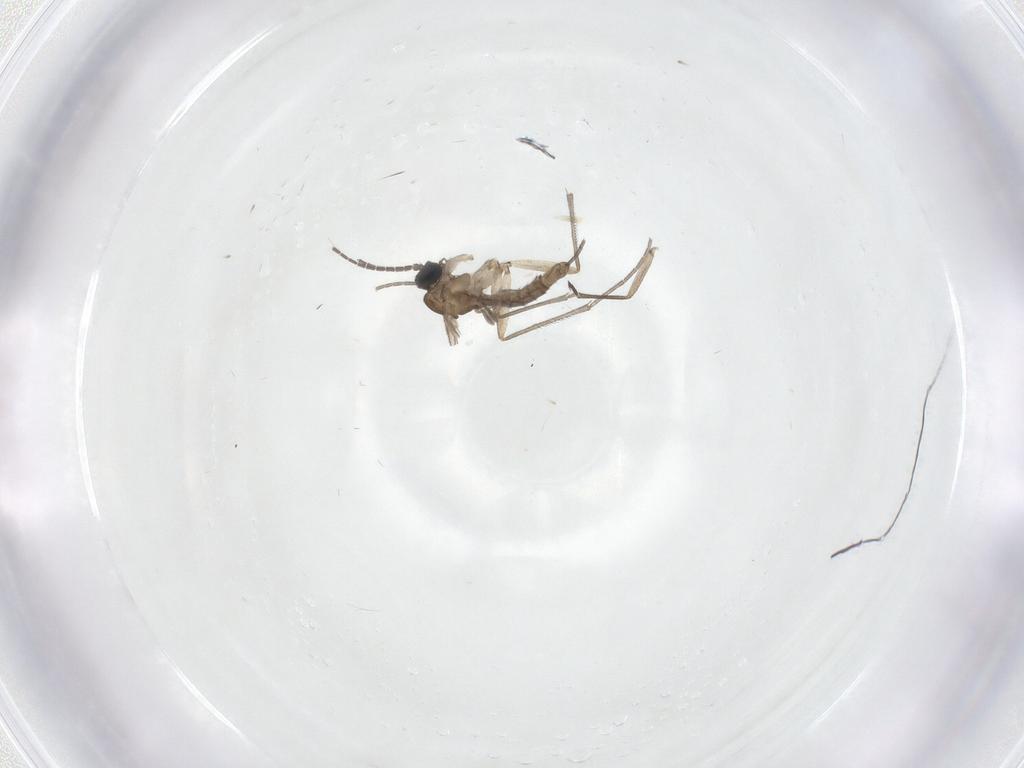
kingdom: Animalia
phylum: Arthropoda
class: Insecta
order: Diptera
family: Sciaridae
